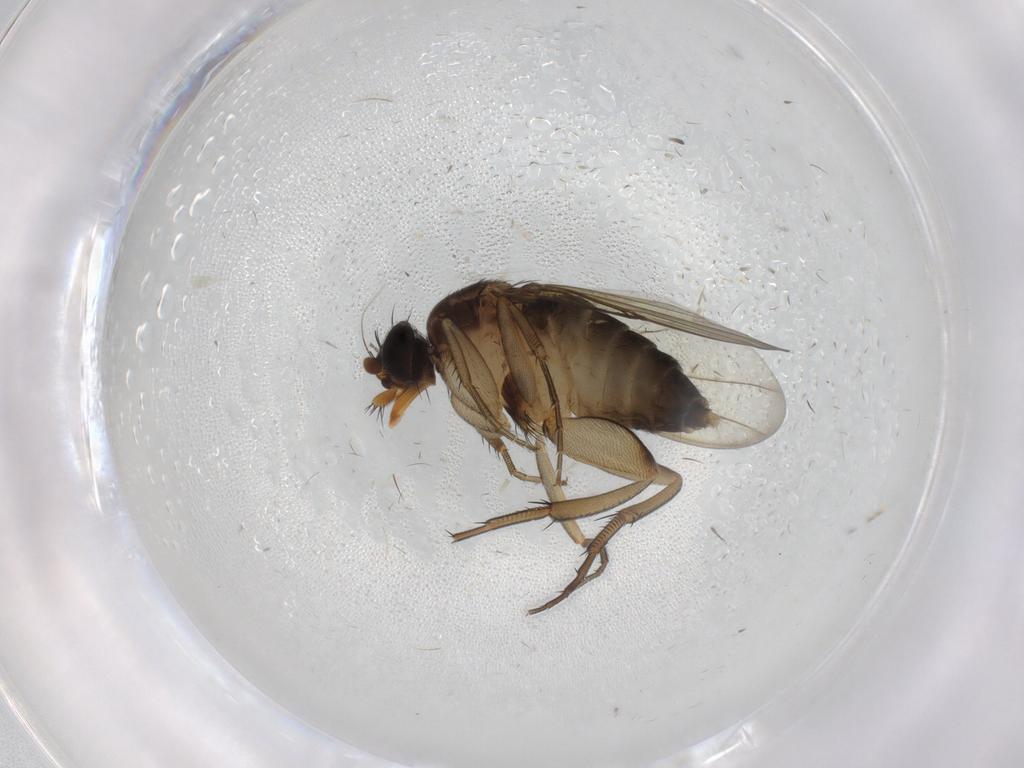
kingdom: Animalia
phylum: Arthropoda
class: Insecta
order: Diptera
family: Phoridae
